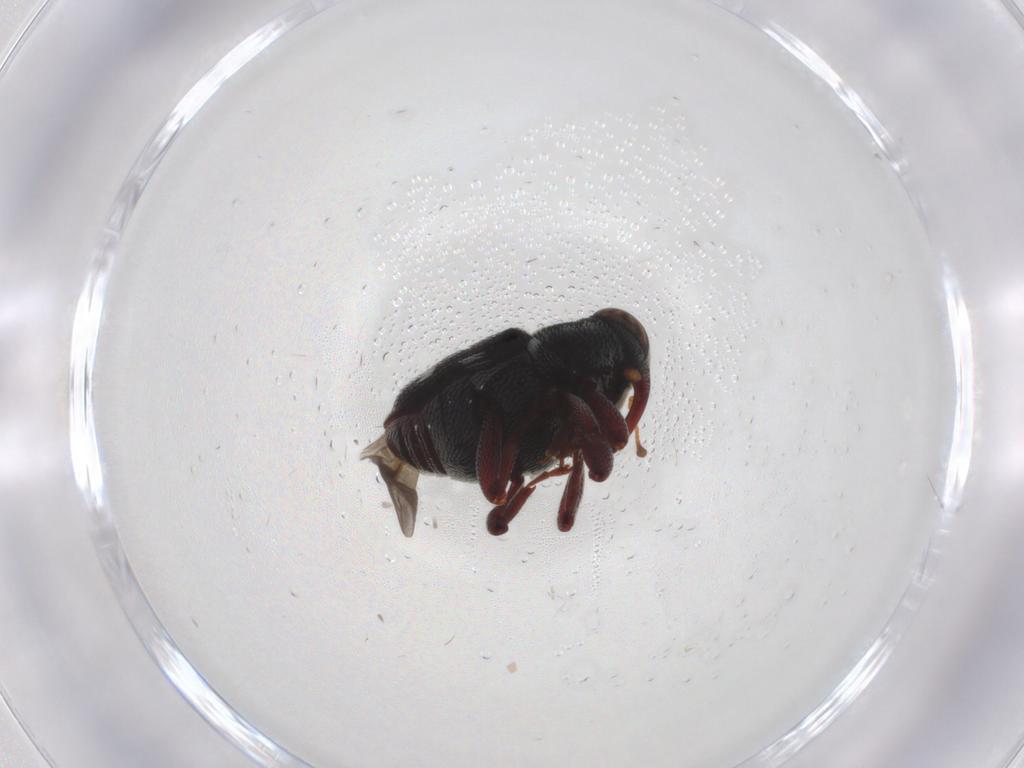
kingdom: Animalia
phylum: Arthropoda
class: Insecta
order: Coleoptera
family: Curculionidae
